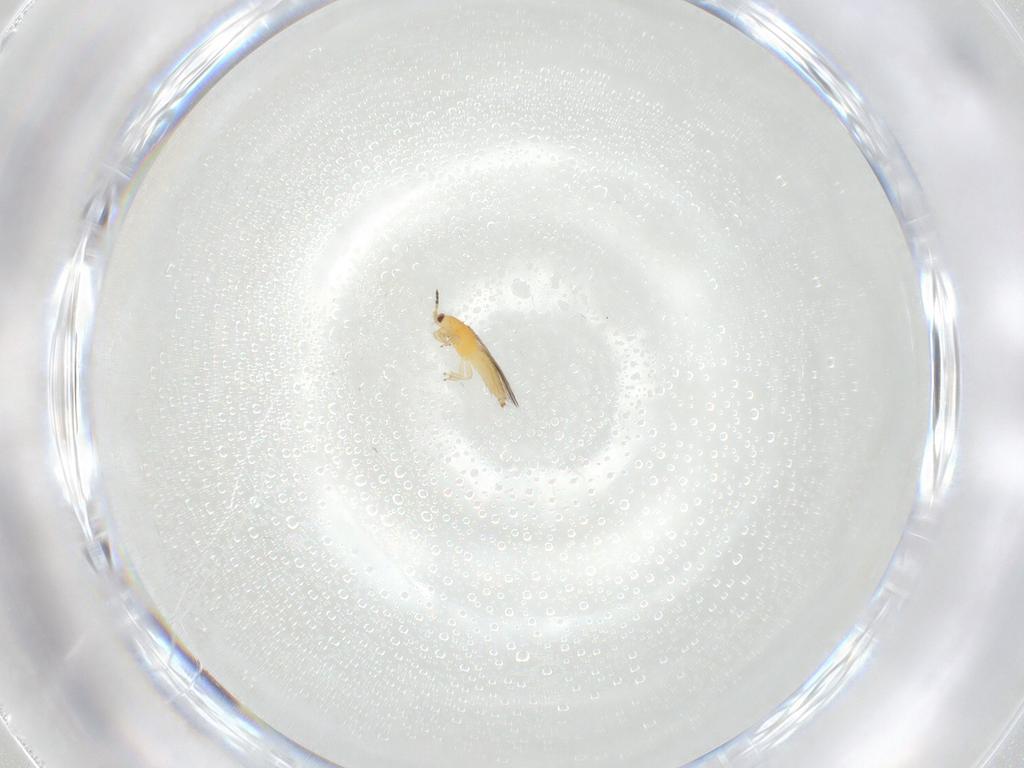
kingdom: Animalia
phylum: Arthropoda
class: Insecta
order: Thysanoptera
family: Thripidae
